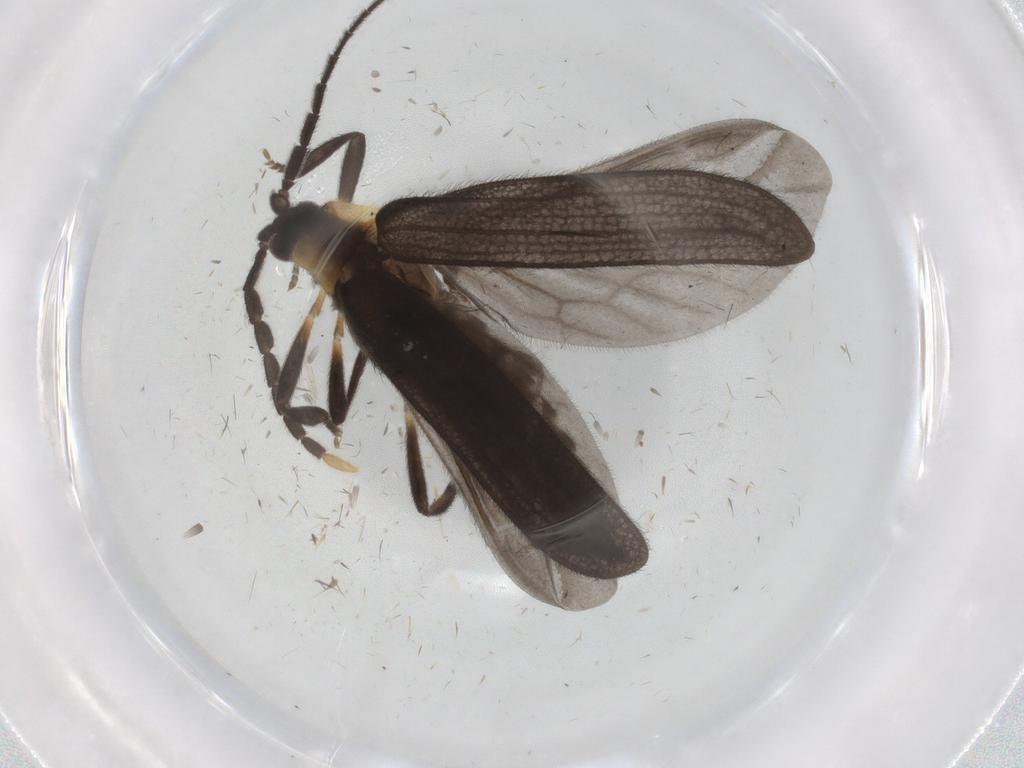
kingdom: Animalia
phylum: Arthropoda
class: Insecta
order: Coleoptera
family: Lycidae
